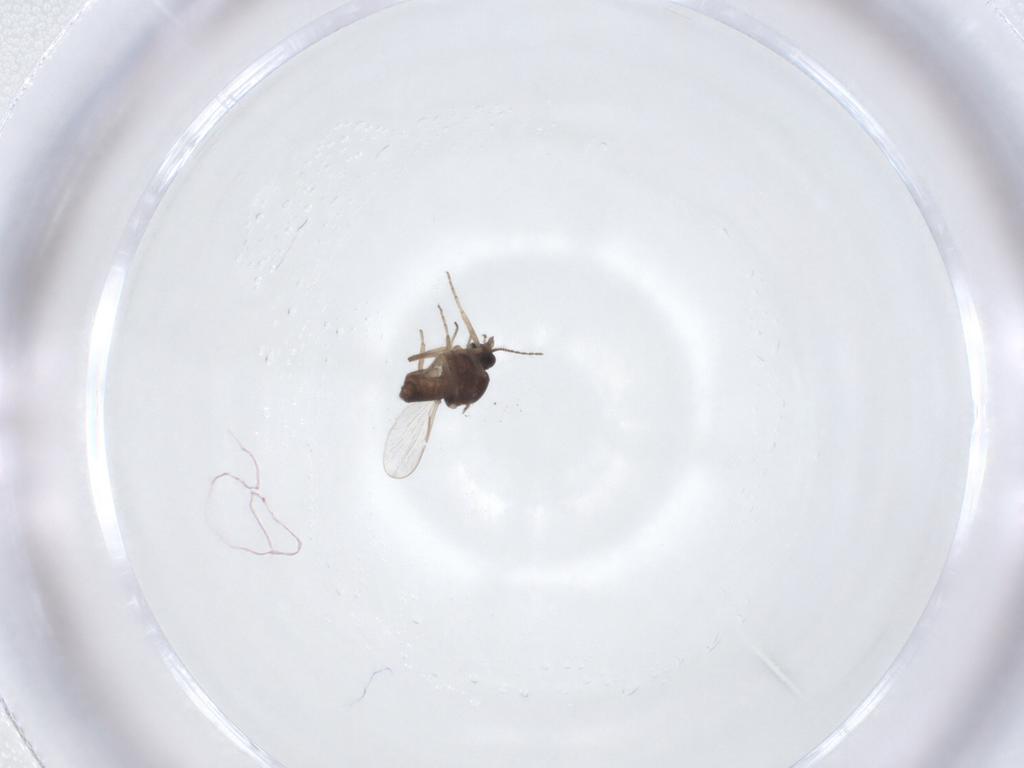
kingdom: Animalia
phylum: Arthropoda
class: Insecta
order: Diptera
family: Ceratopogonidae
